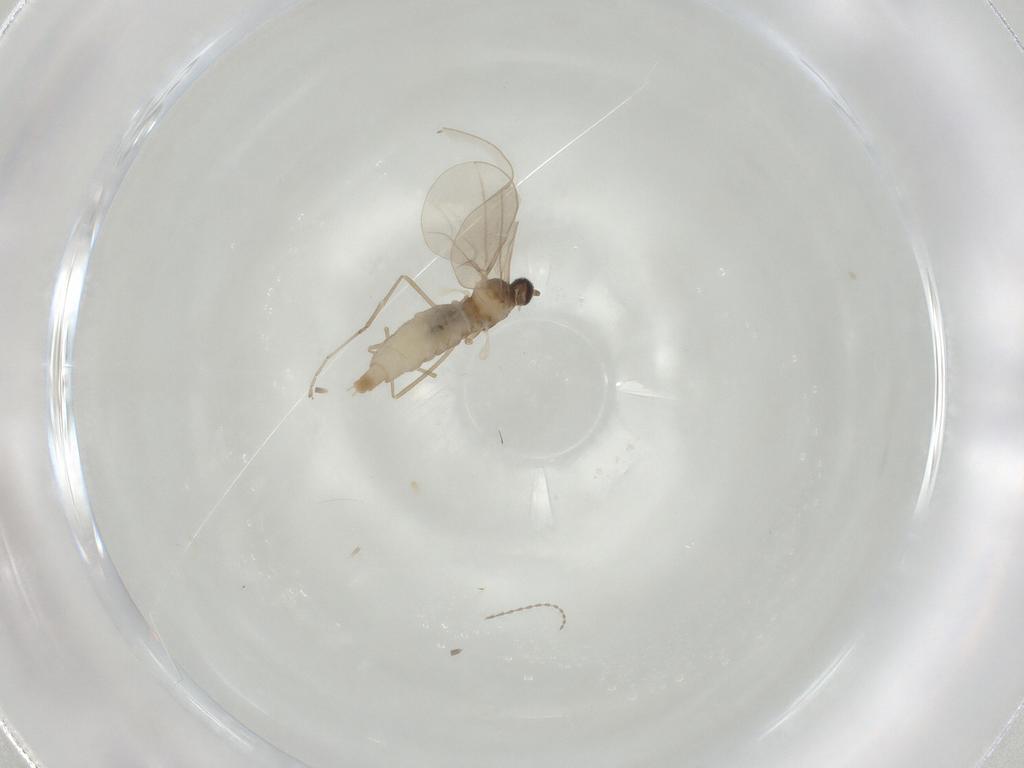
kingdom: Animalia
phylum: Arthropoda
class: Insecta
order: Diptera
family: Cecidomyiidae
